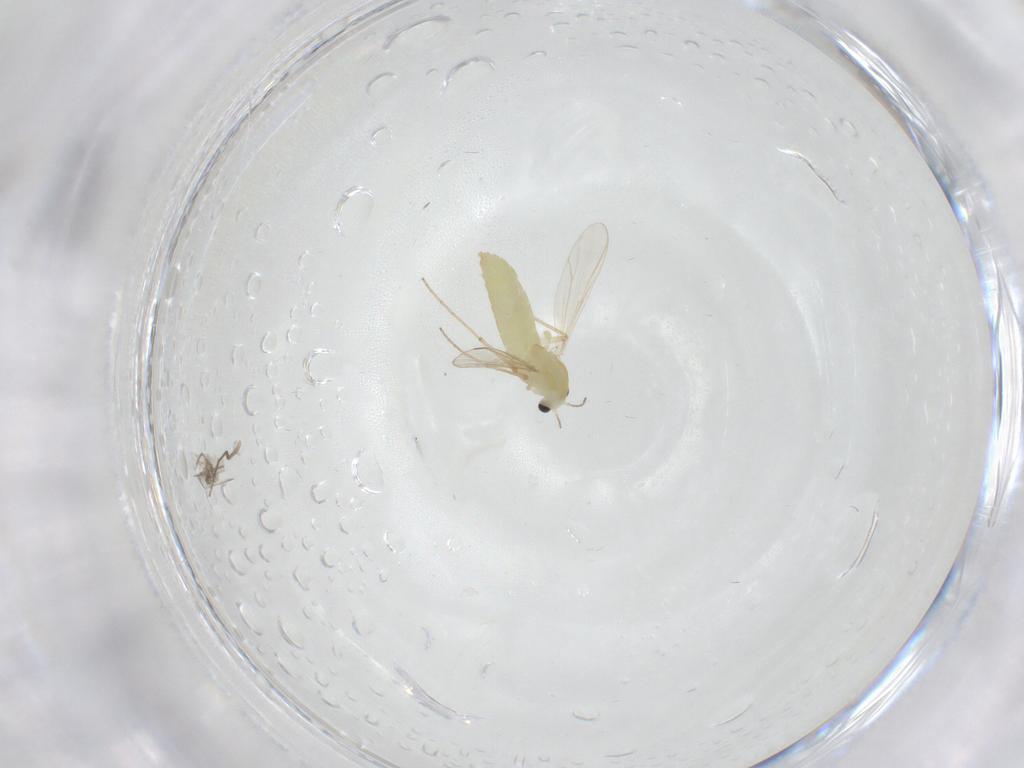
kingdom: Animalia
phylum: Arthropoda
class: Insecta
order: Diptera
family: Chironomidae
